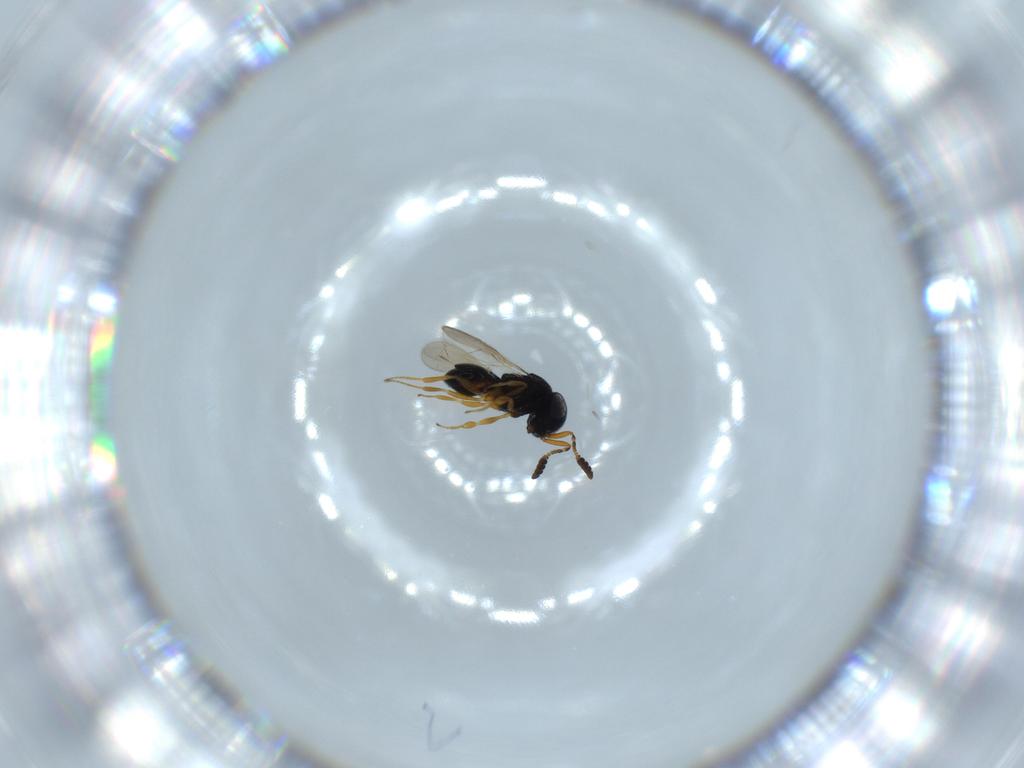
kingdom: Animalia
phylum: Arthropoda
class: Insecta
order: Hymenoptera
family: Scelionidae
